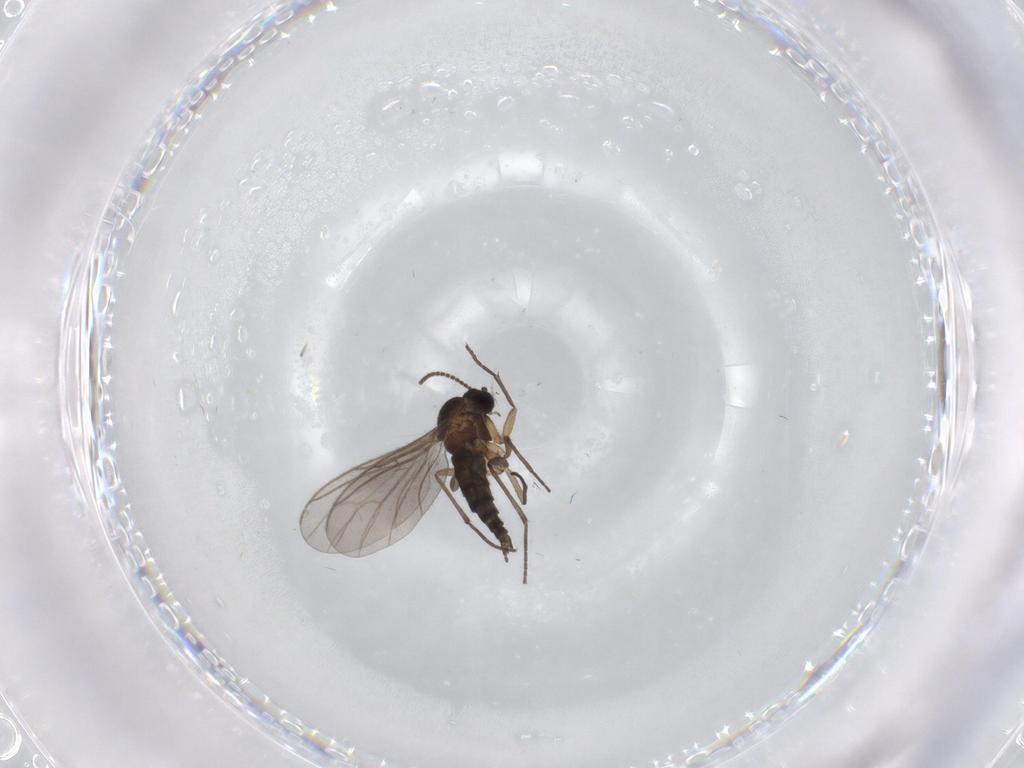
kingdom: Animalia
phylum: Arthropoda
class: Insecta
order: Diptera
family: Sciaridae
